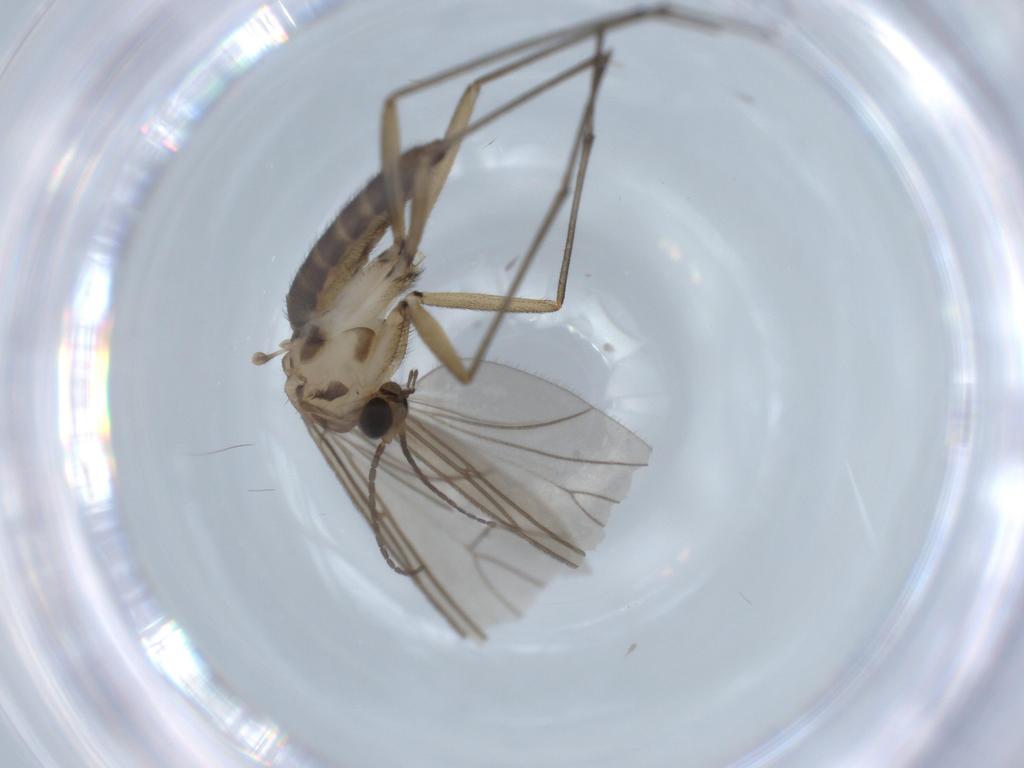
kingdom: Animalia
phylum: Arthropoda
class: Insecta
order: Diptera
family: Sciaridae
